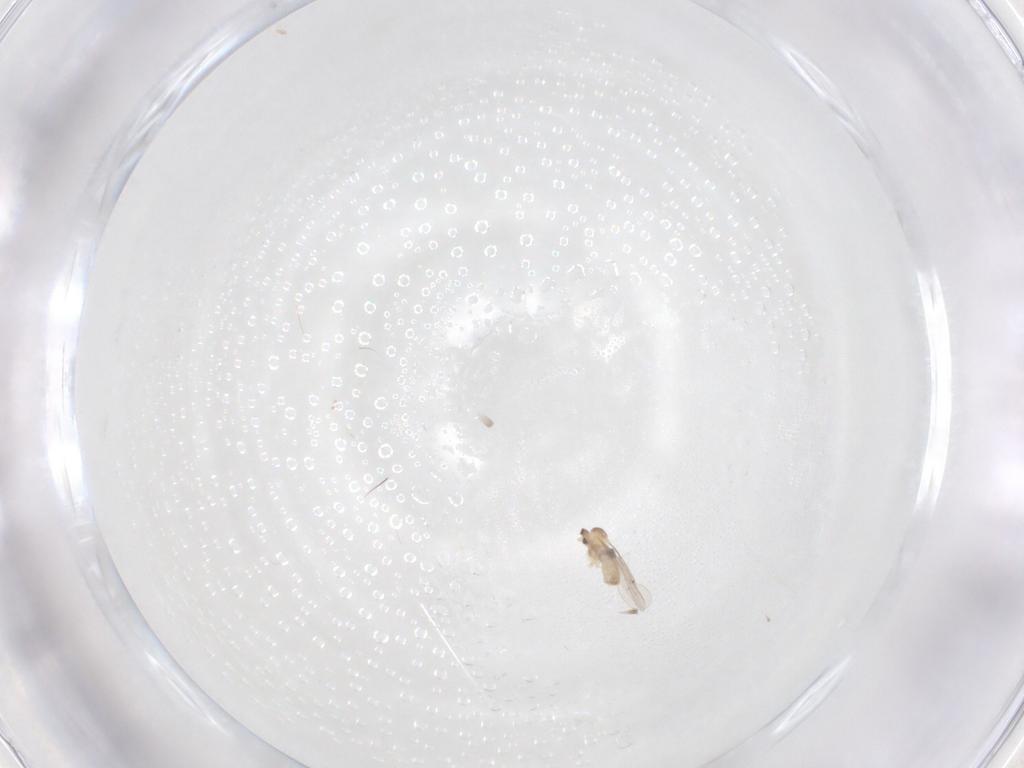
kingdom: Animalia
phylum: Arthropoda
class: Insecta
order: Diptera
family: Cecidomyiidae
